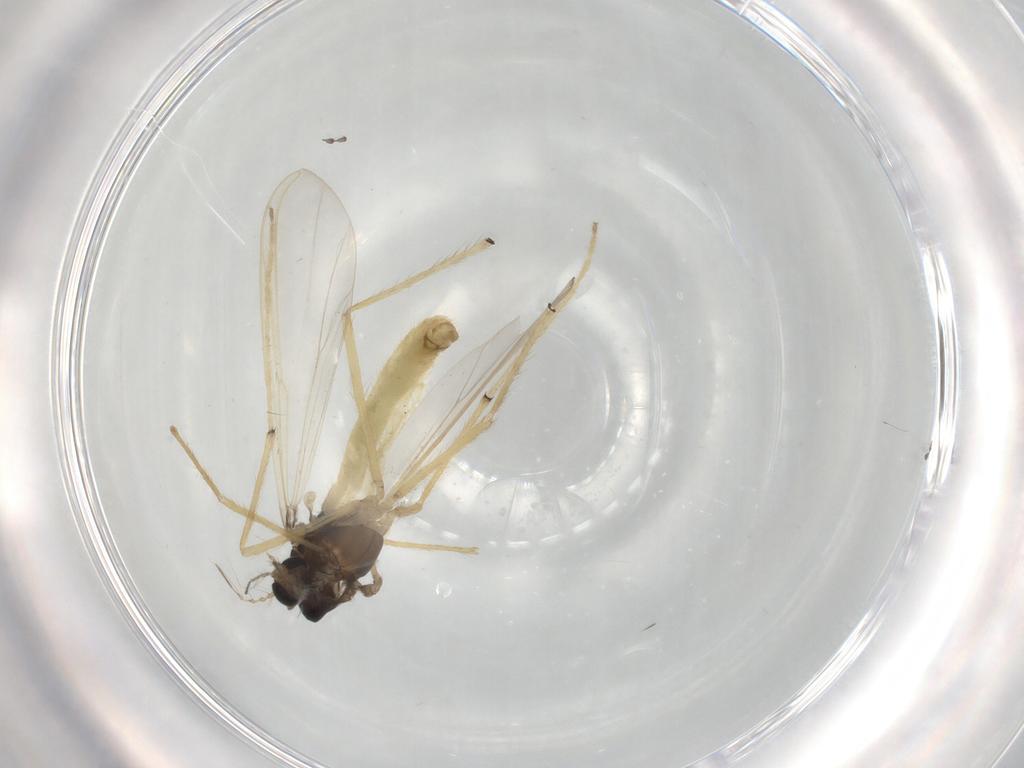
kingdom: Animalia
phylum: Arthropoda
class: Insecta
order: Diptera
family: Chironomidae
